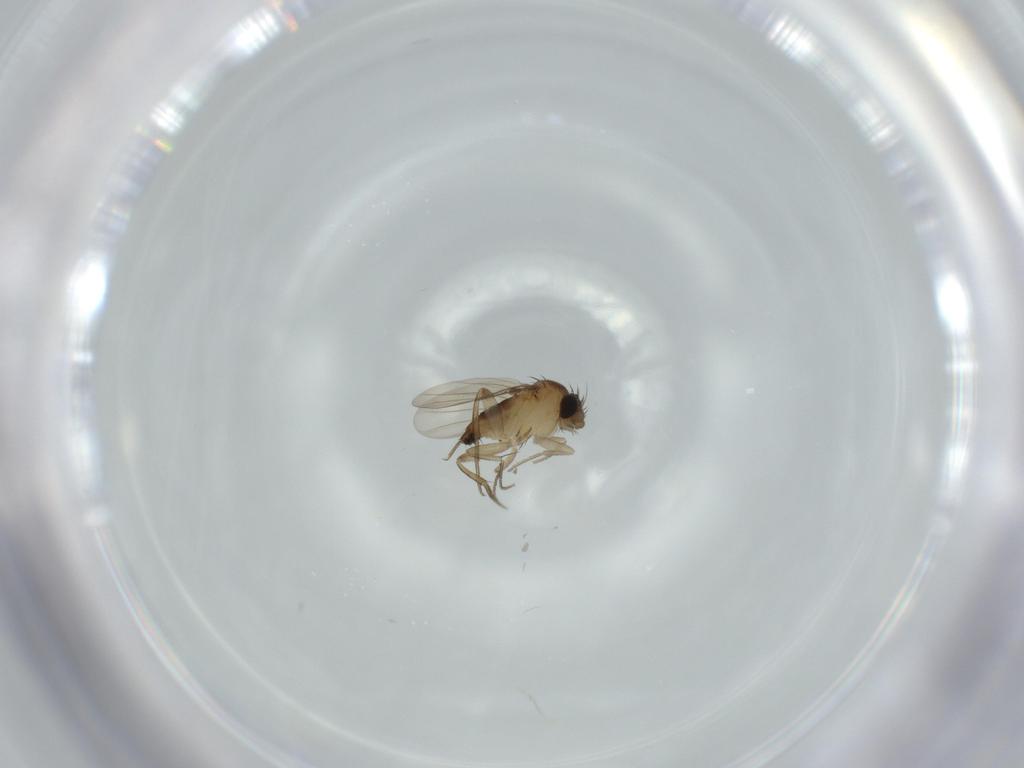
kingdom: Animalia
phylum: Arthropoda
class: Insecta
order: Diptera
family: Phoridae
